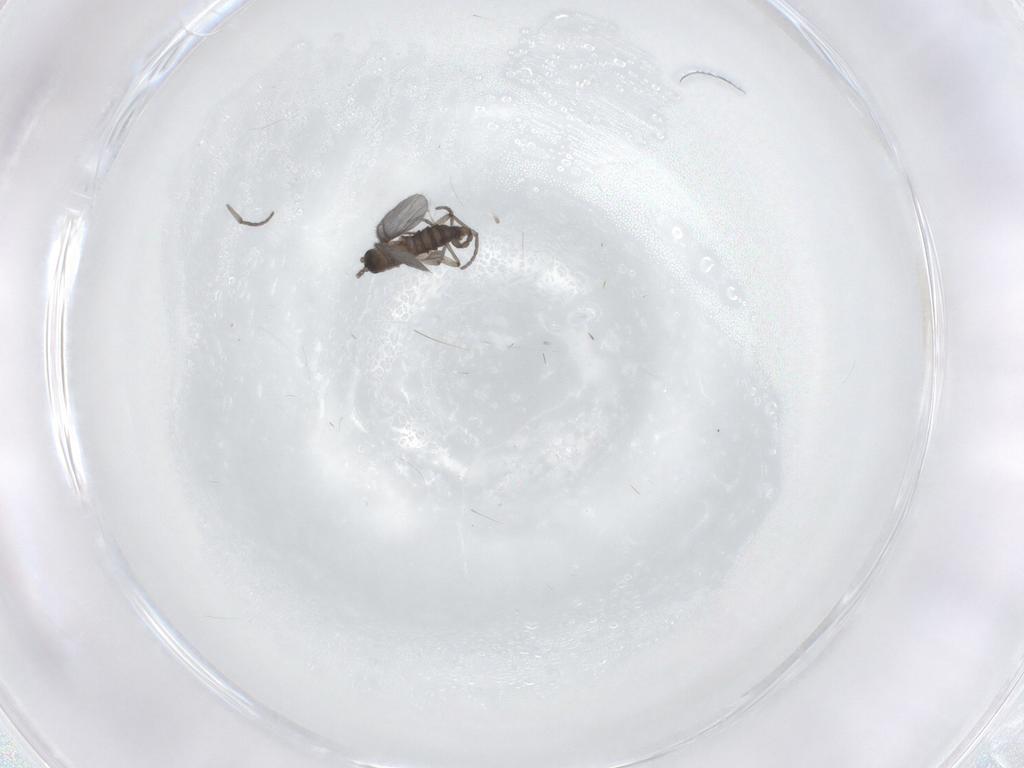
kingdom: Animalia
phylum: Arthropoda
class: Insecta
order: Diptera
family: Sciaridae
